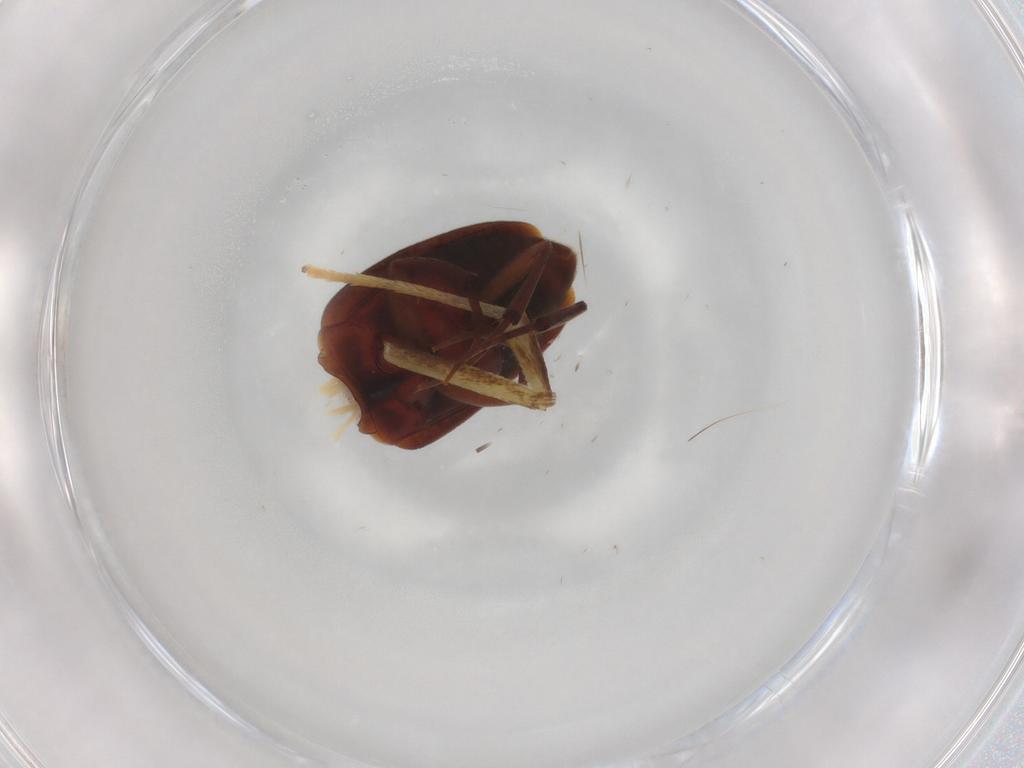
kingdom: Animalia
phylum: Arthropoda
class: Insecta
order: Coleoptera
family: Leiodidae
